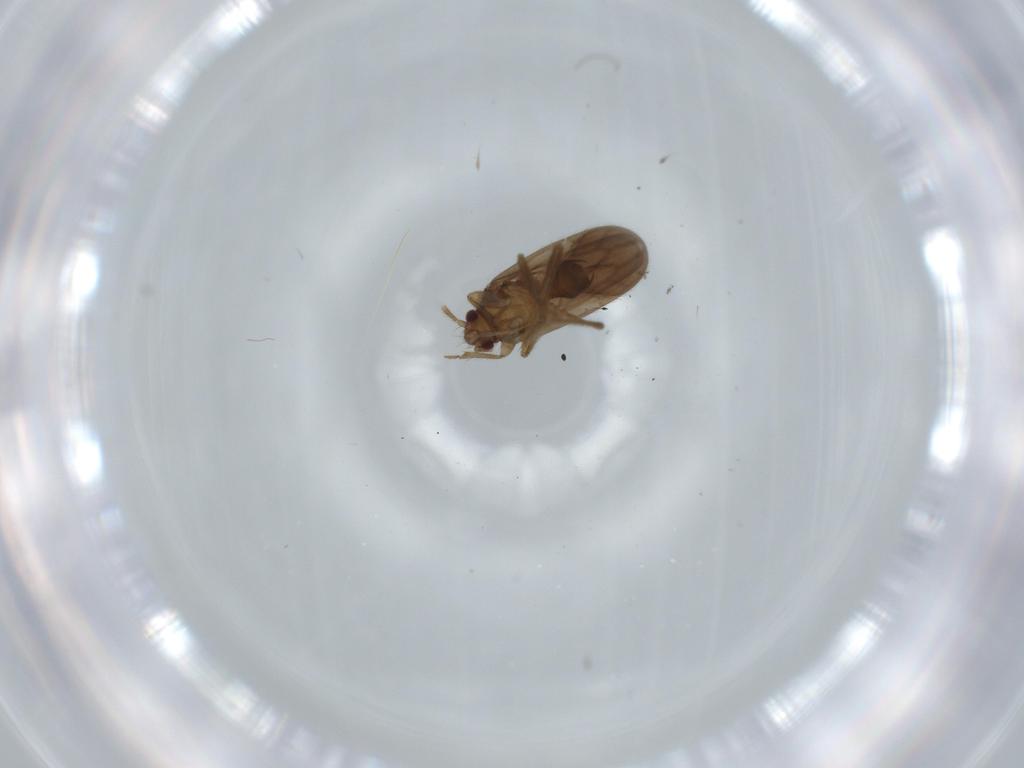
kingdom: Animalia
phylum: Arthropoda
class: Insecta
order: Hemiptera
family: Ceratocombidae
